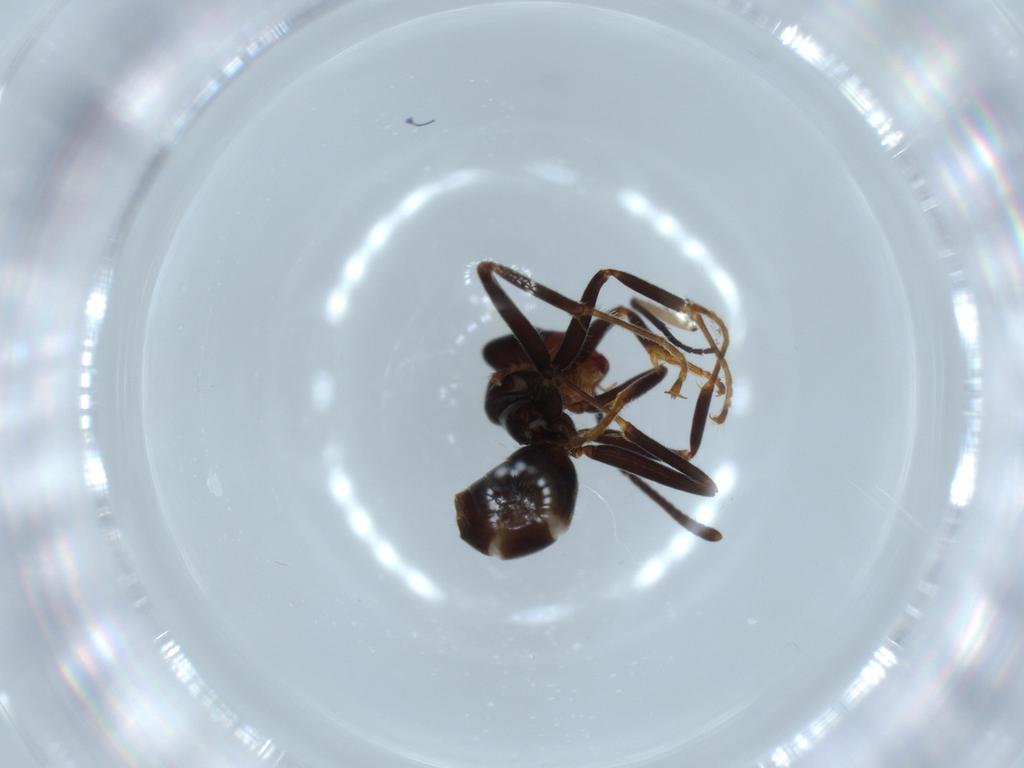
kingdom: Animalia
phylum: Arthropoda
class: Insecta
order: Hymenoptera
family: Formicidae
